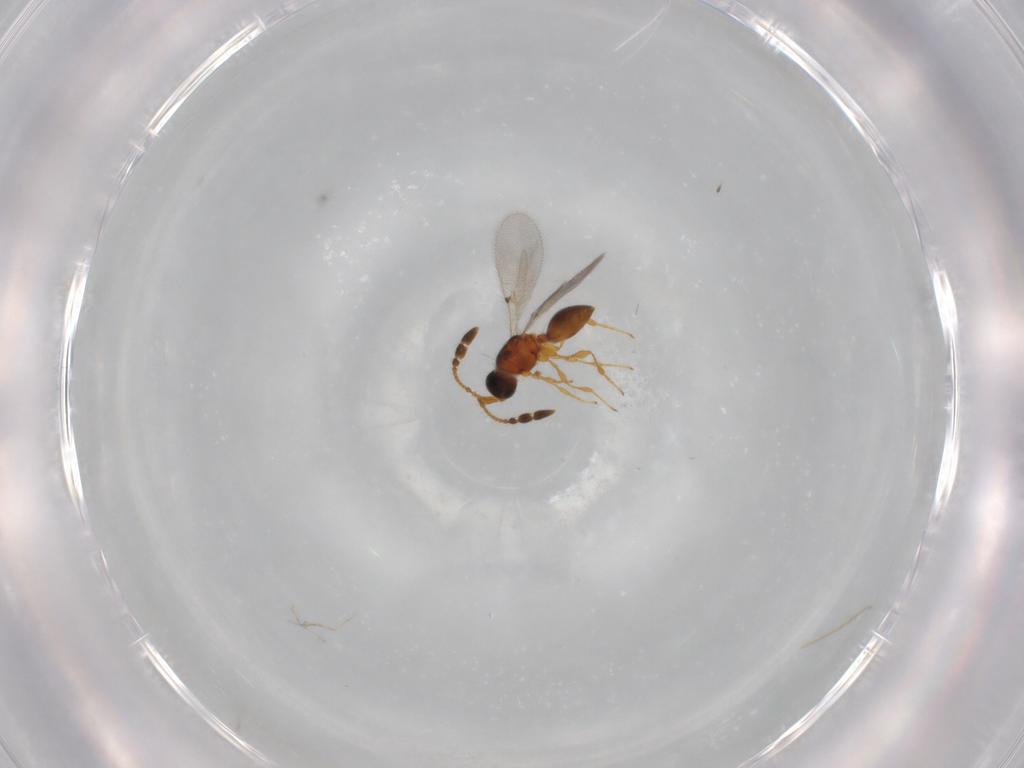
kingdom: Animalia
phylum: Arthropoda
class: Insecta
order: Hymenoptera
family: Diapriidae
